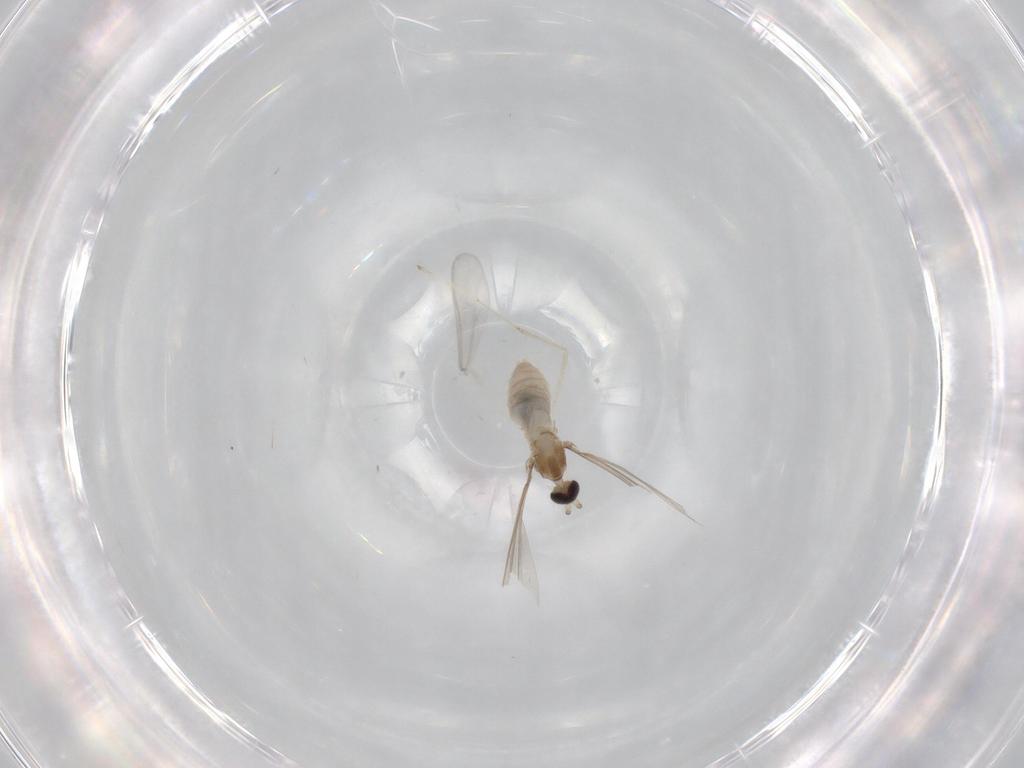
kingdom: Animalia
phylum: Arthropoda
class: Insecta
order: Diptera
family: Cecidomyiidae
